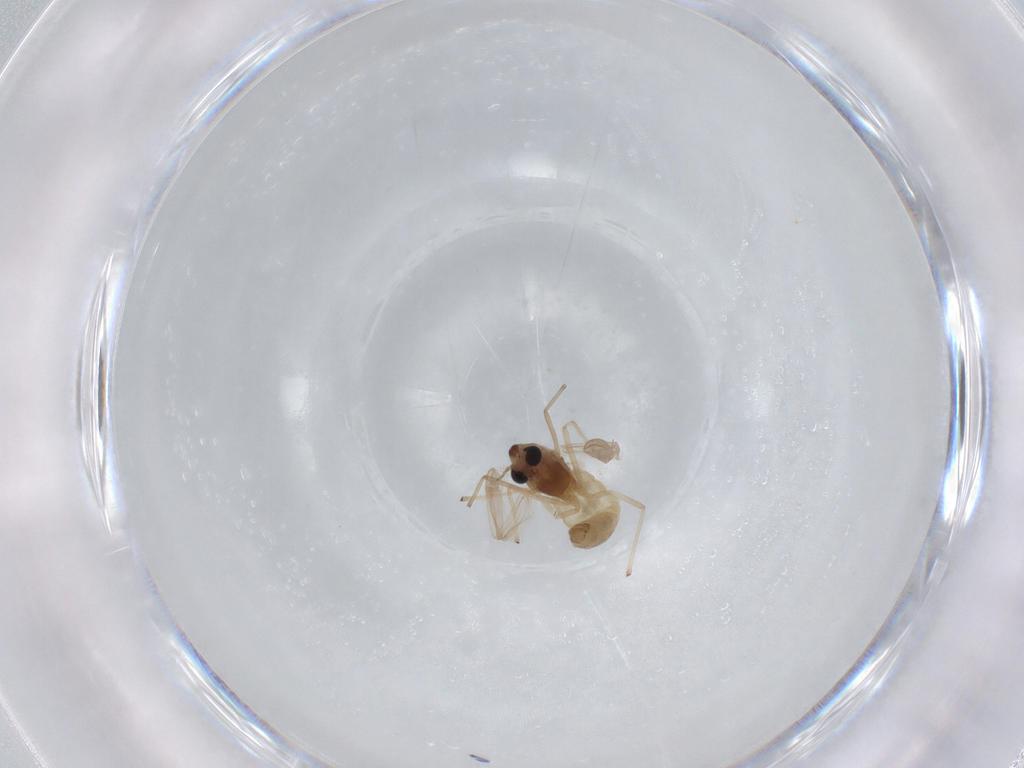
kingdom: Animalia
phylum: Arthropoda
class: Insecta
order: Diptera
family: Chironomidae
